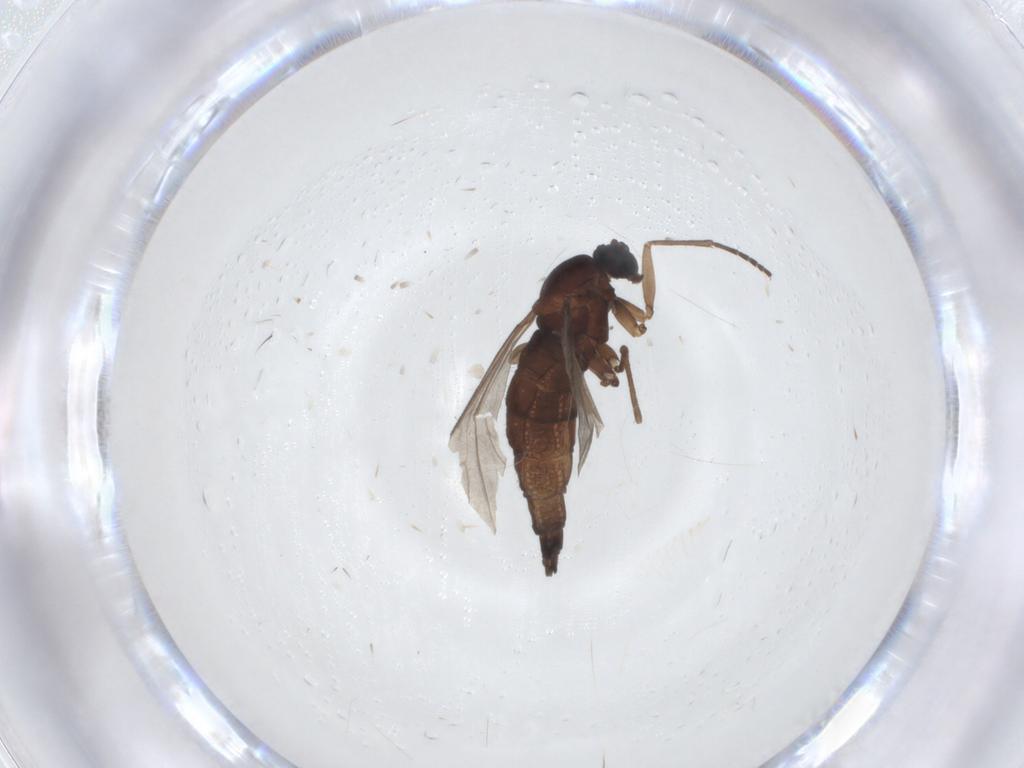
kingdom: Animalia
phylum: Arthropoda
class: Insecta
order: Diptera
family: Sciaridae
